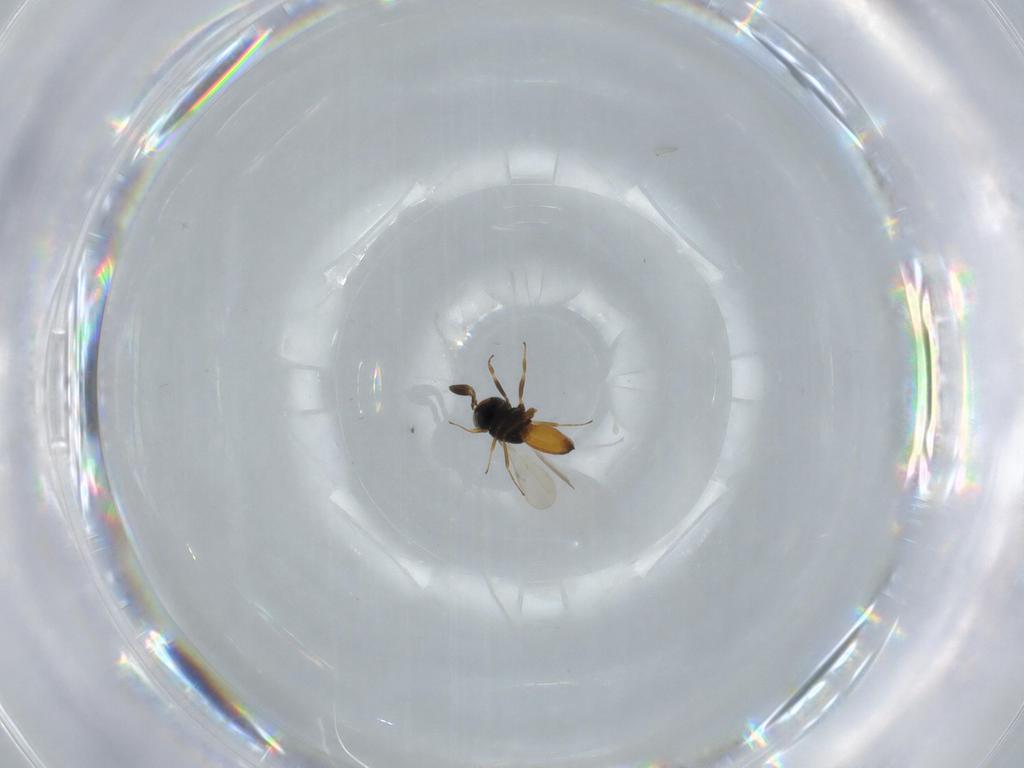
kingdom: Animalia
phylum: Arthropoda
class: Insecta
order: Hymenoptera
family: Scelionidae
